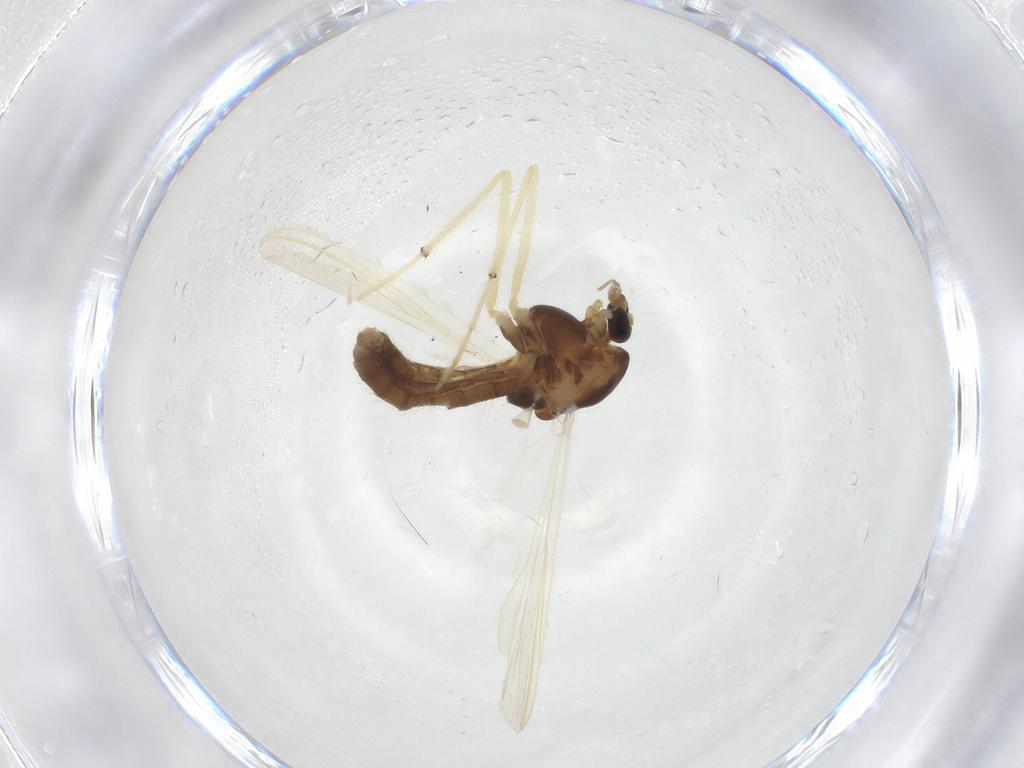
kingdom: Animalia
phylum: Arthropoda
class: Insecta
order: Diptera
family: Chironomidae
